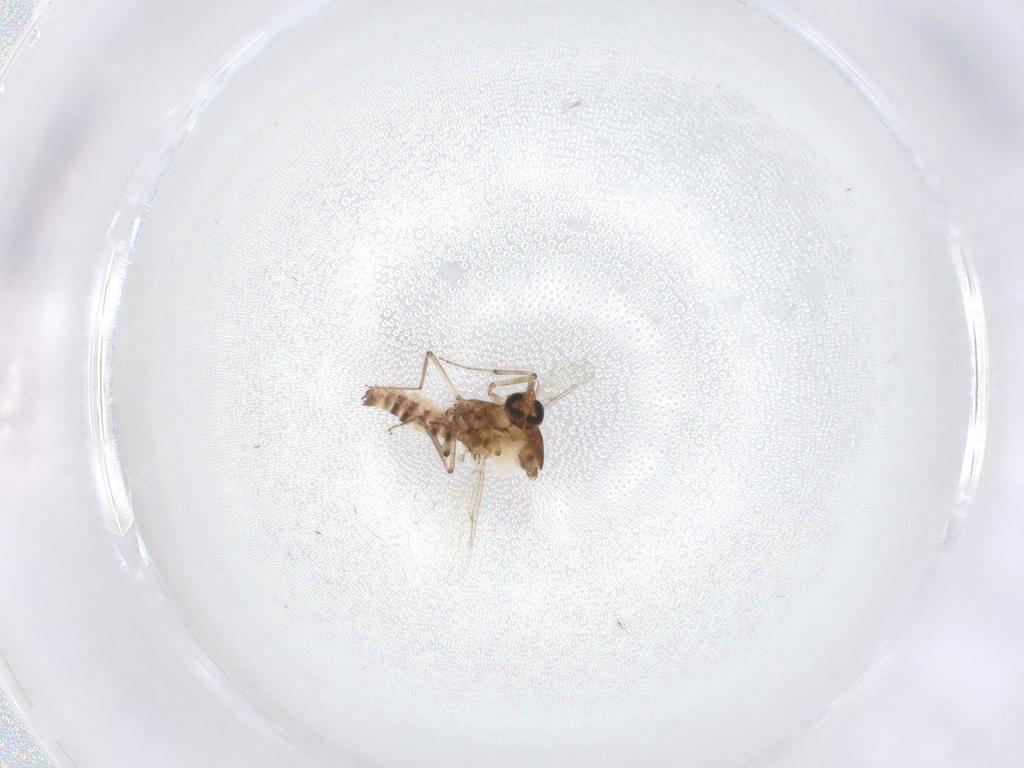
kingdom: Animalia
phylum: Arthropoda
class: Insecta
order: Diptera
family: Ceratopogonidae
